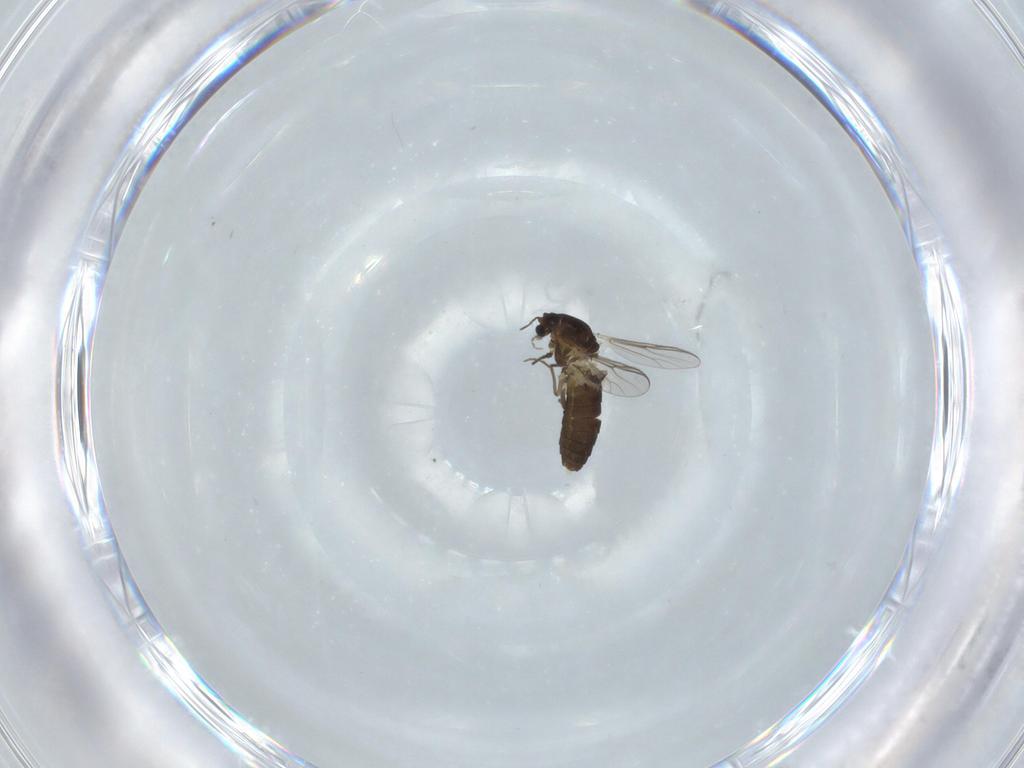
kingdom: Animalia
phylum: Arthropoda
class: Insecta
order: Diptera
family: Chironomidae
